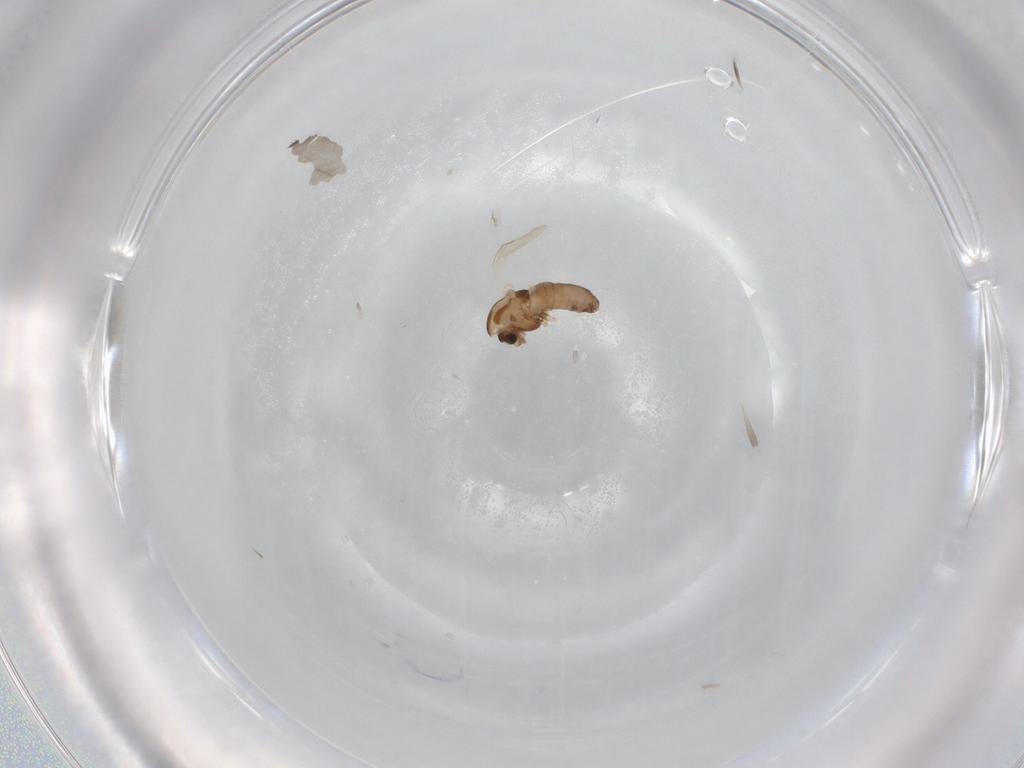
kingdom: Animalia
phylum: Arthropoda
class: Insecta
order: Diptera
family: Chironomidae
